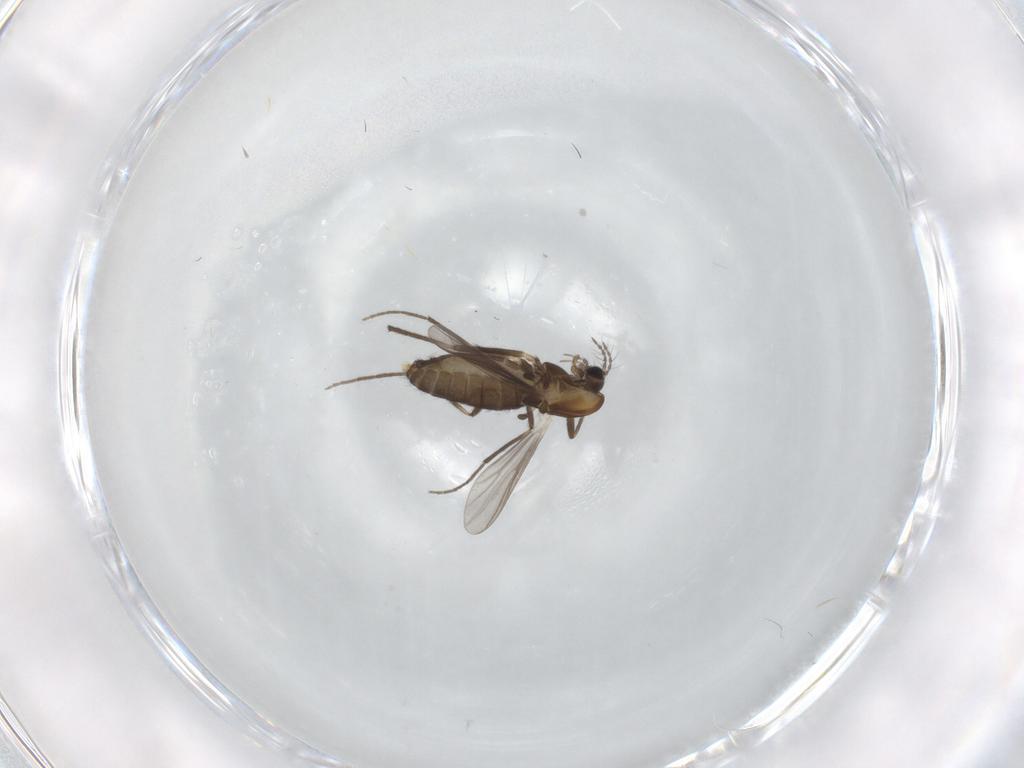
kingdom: Animalia
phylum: Arthropoda
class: Insecta
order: Diptera
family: Chironomidae
